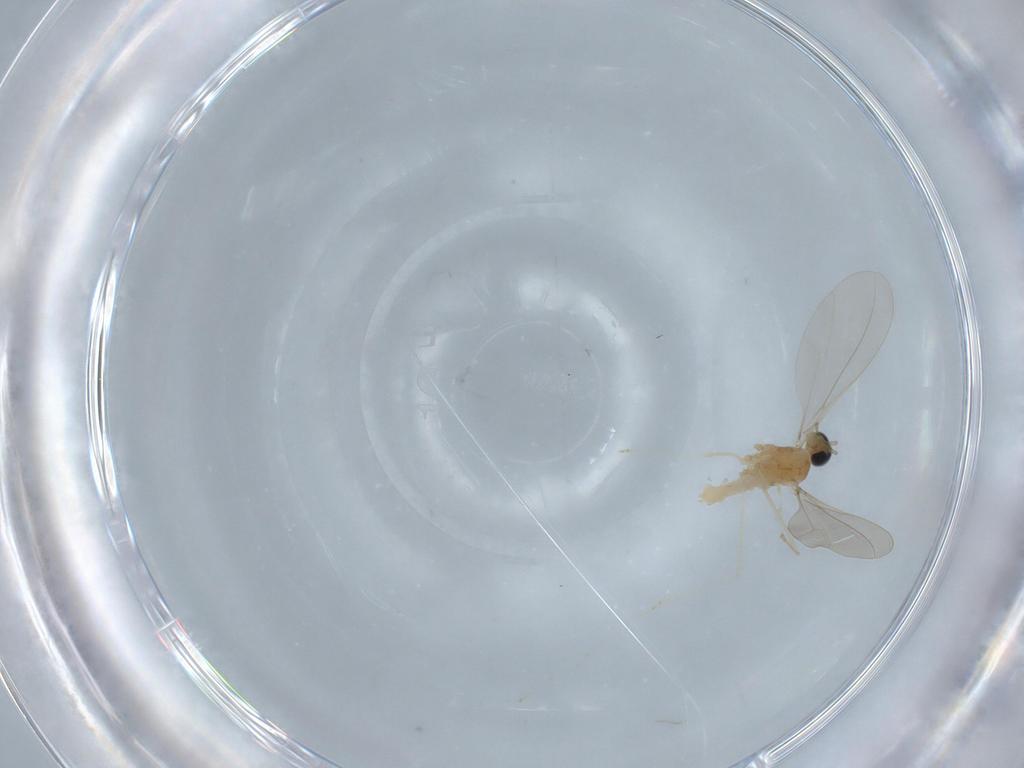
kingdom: Animalia
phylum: Arthropoda
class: Insecta
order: Diptera
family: Cecidomyiidae
